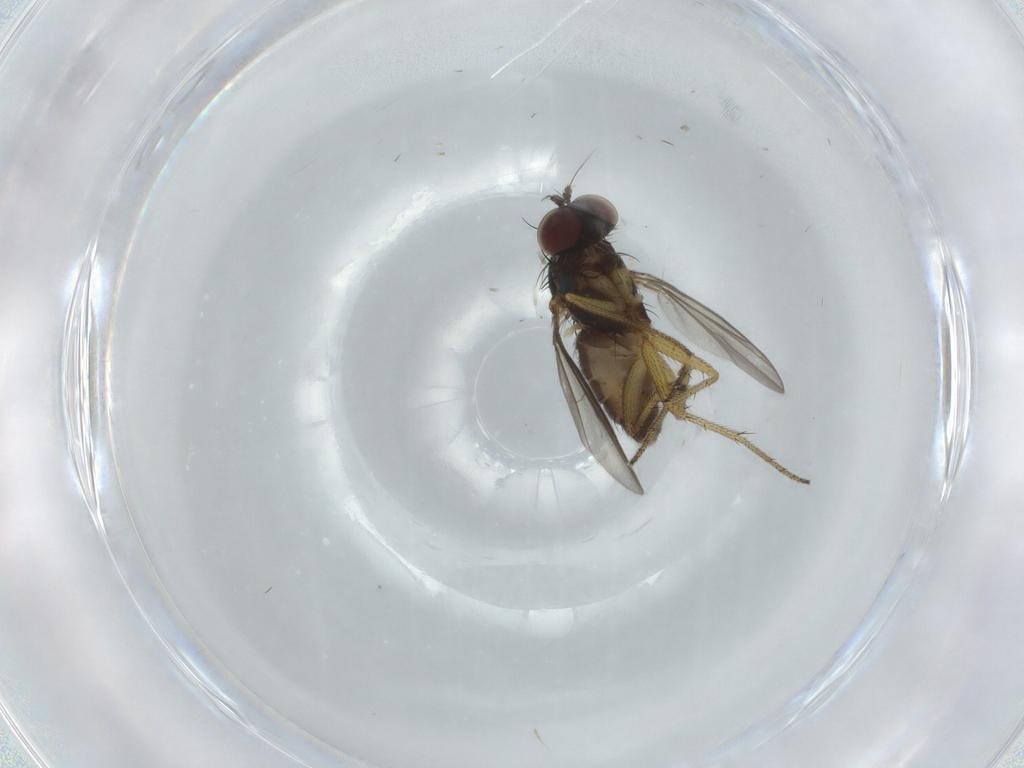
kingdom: Animalia
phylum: Arthropoda
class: Insecta
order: Diptera
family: Dolichopodidae
